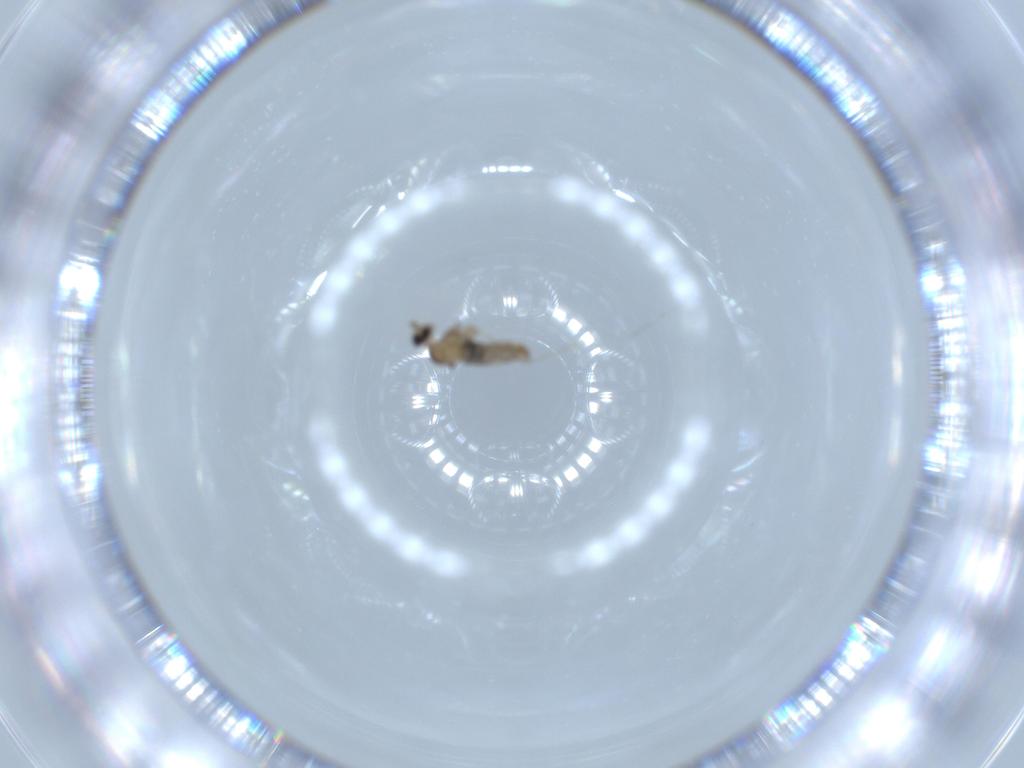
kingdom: Animalia
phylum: Arthropoda
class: Insecta
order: Diptera
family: Cecidomyiidae
